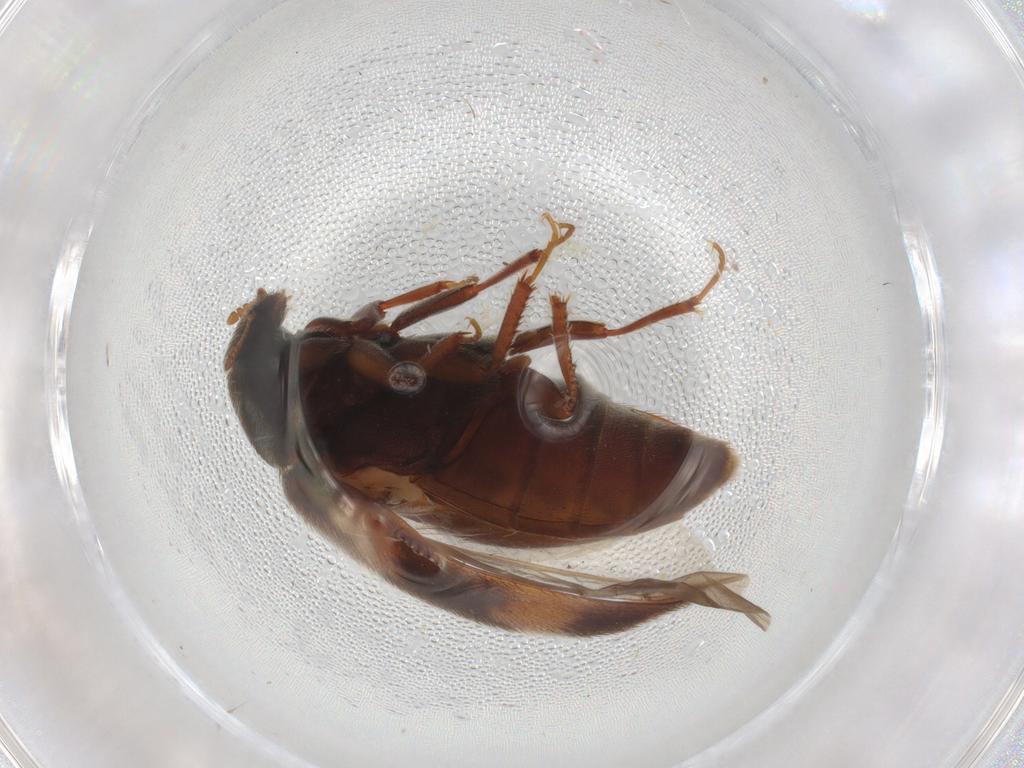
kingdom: Animalia
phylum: Arthropoda
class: Insecta
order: Coleoptera
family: Dermestidae
